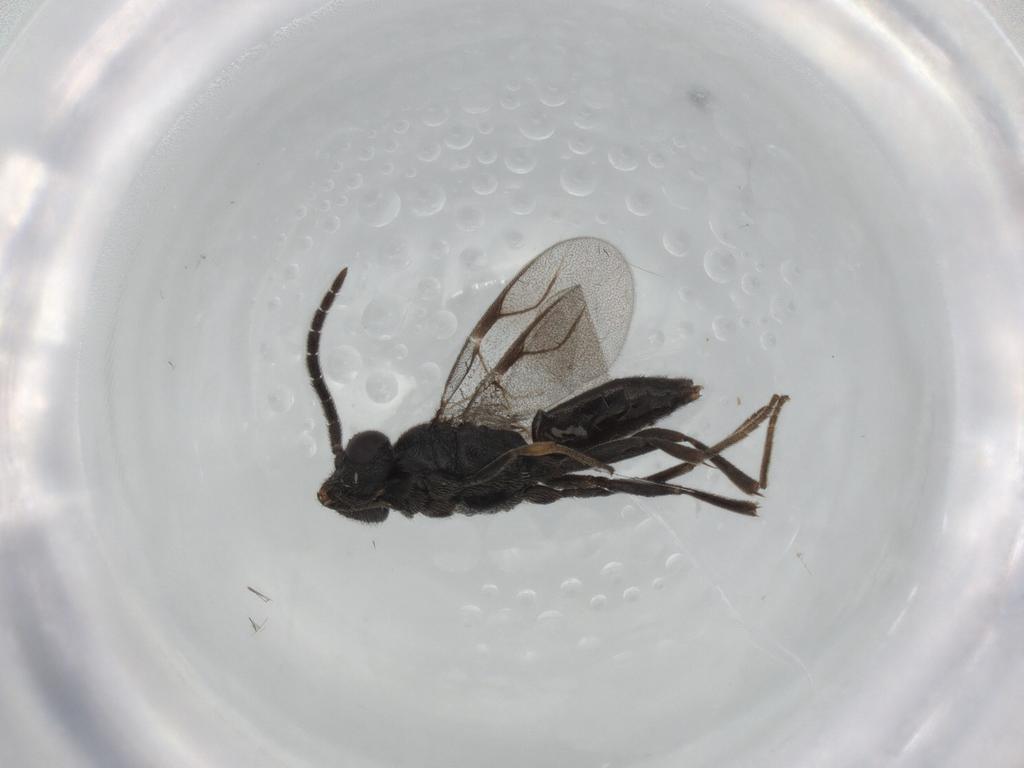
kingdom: Animalia
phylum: Arthropoda
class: Insecta
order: Hymenoptera
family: Dryinidae
